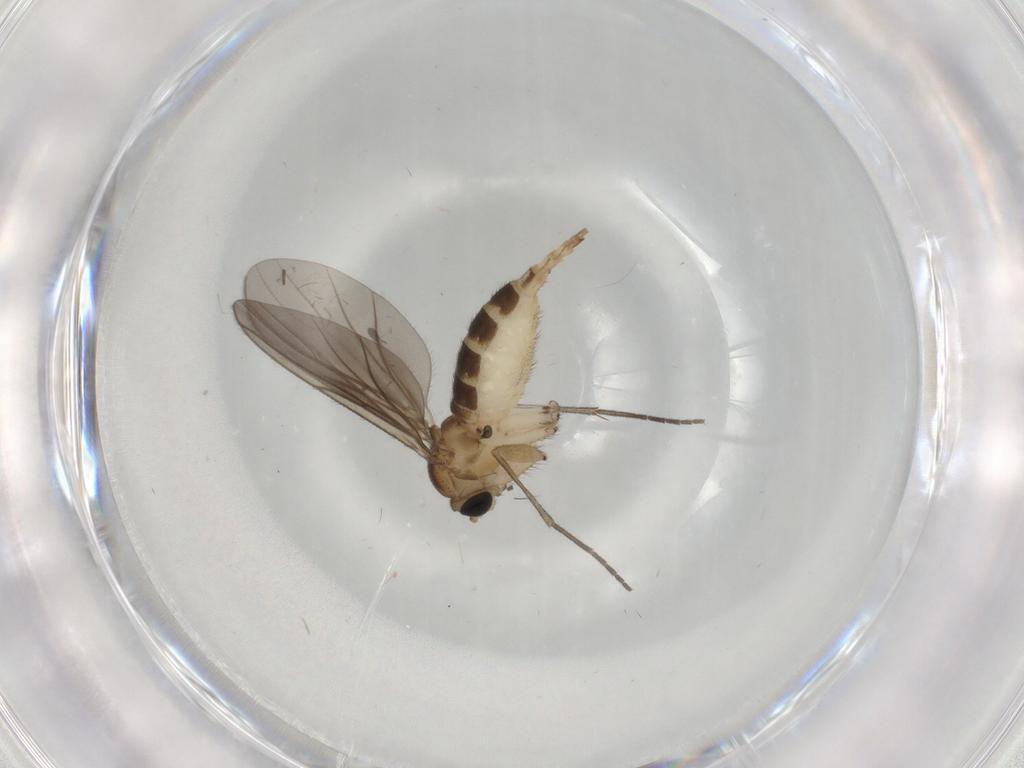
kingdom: Animalia
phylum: Arthropoda
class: Insecta
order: Diptera
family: Sciaridae
